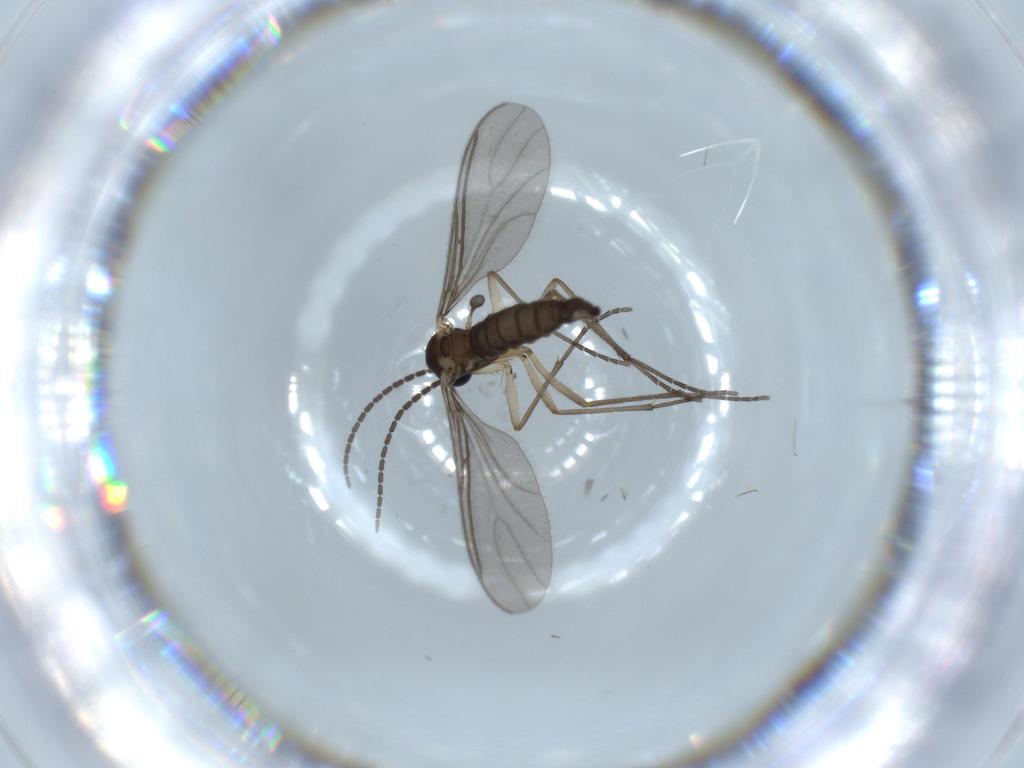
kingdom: Animalia
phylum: Arthropoda
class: Insecta
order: Diptera
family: Sciaridae
